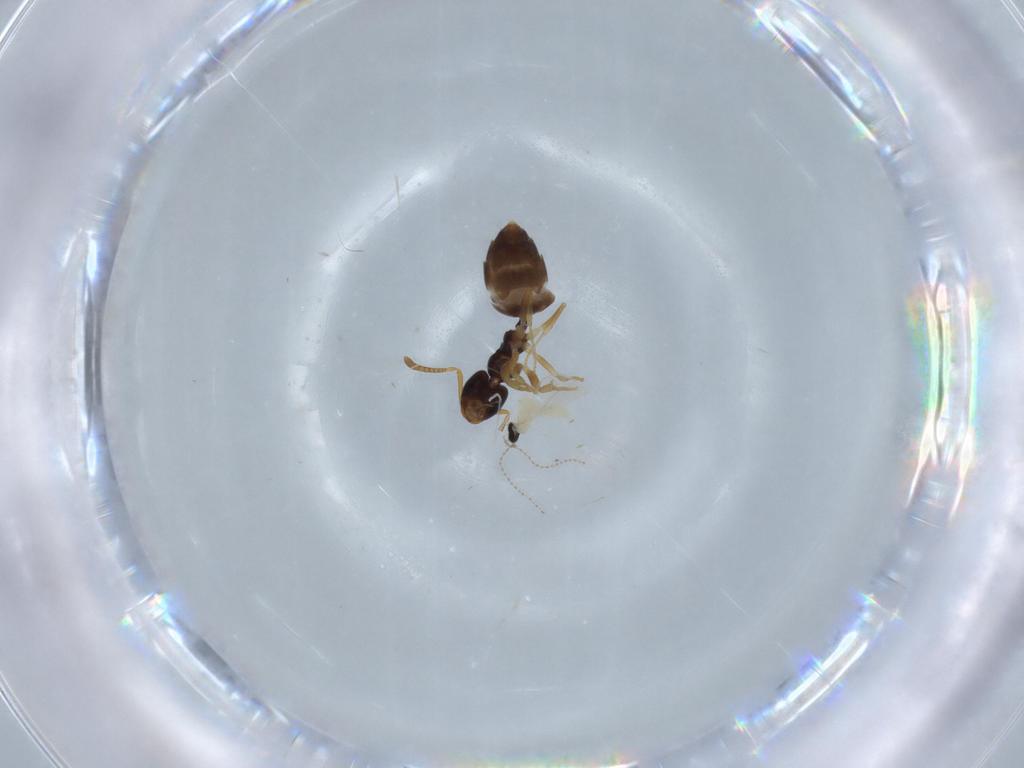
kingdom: Animalia
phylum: Arthropoda
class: Insecta
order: Hymenoptera
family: Formicidae
